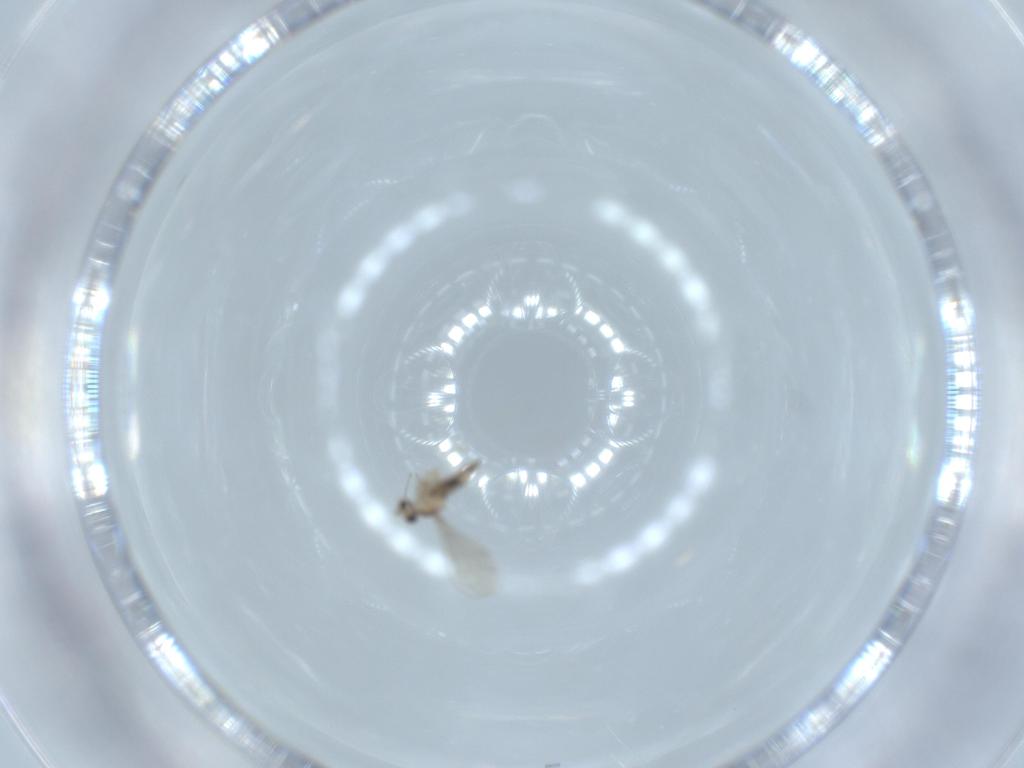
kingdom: Animalia
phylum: Arthropoda
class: Insecta
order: Diptera
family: Cecidomyiidae
